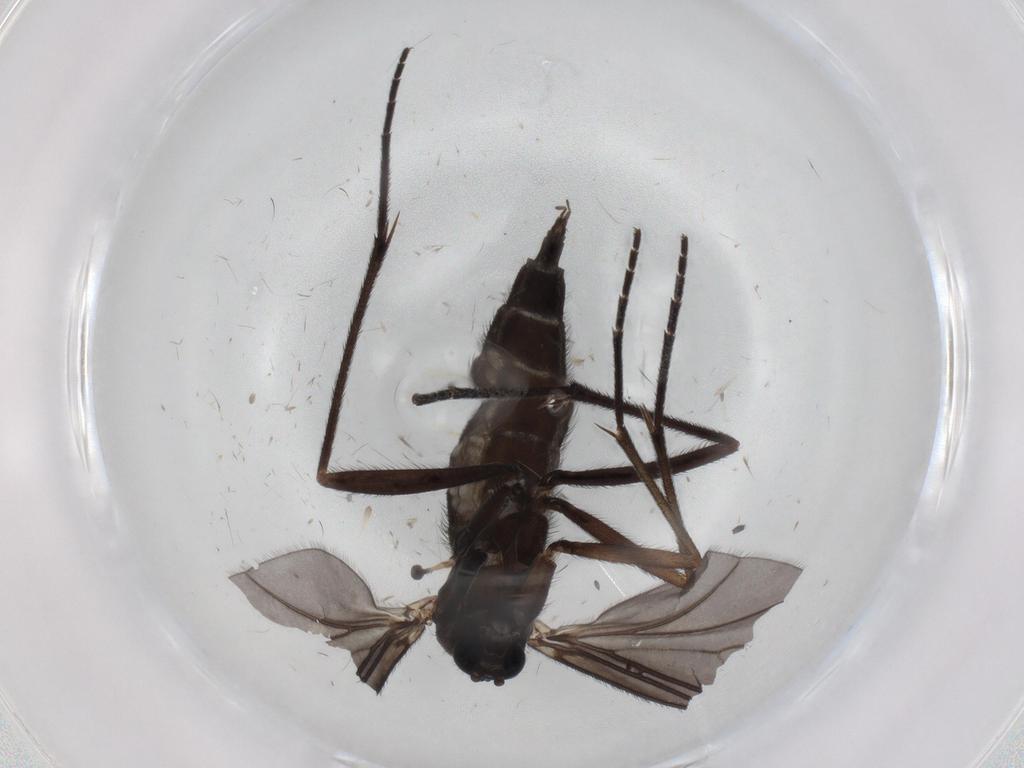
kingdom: Animalia
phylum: Arthropoda
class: Insecta
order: Diptera
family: Sciaridae
